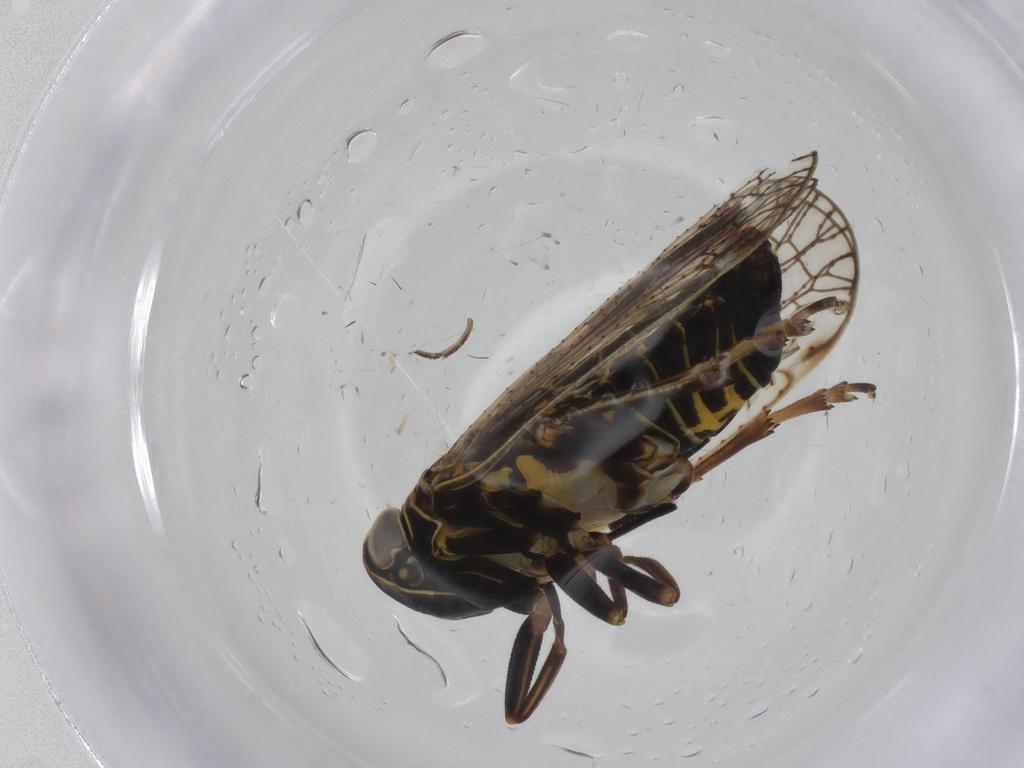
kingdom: Animalia
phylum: Arthropoda
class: Insecta
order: Hemiptera
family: Cixiidae
